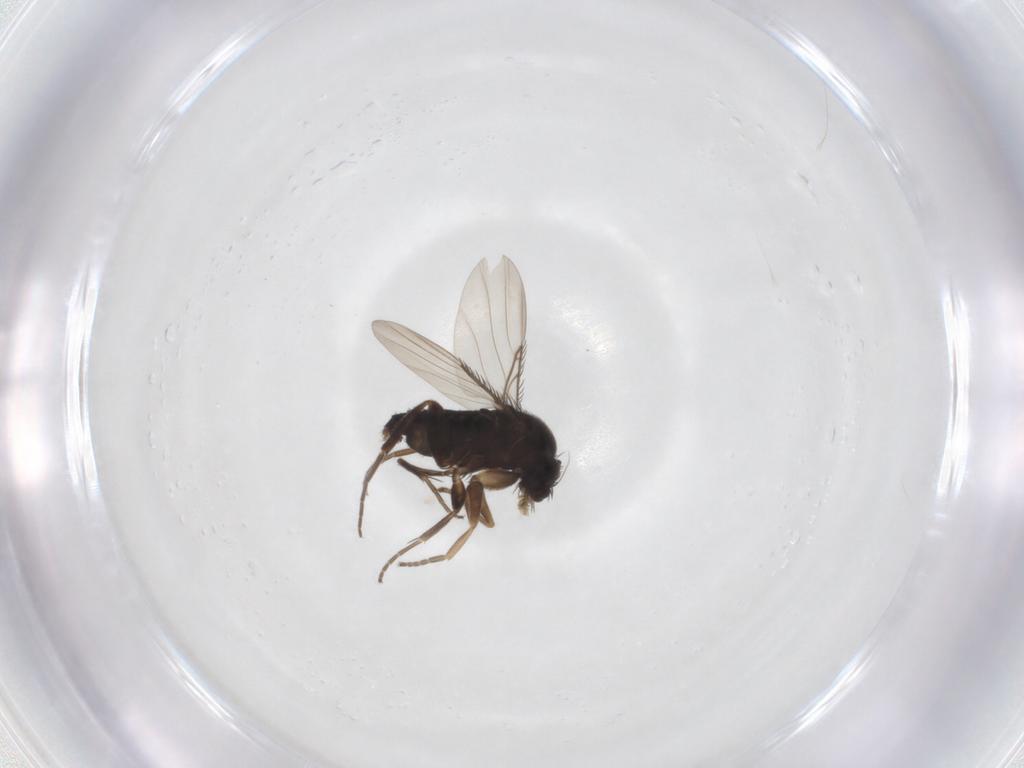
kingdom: Animalia
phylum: Arthropoda
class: Insecta
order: Diptera
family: Phoridae
